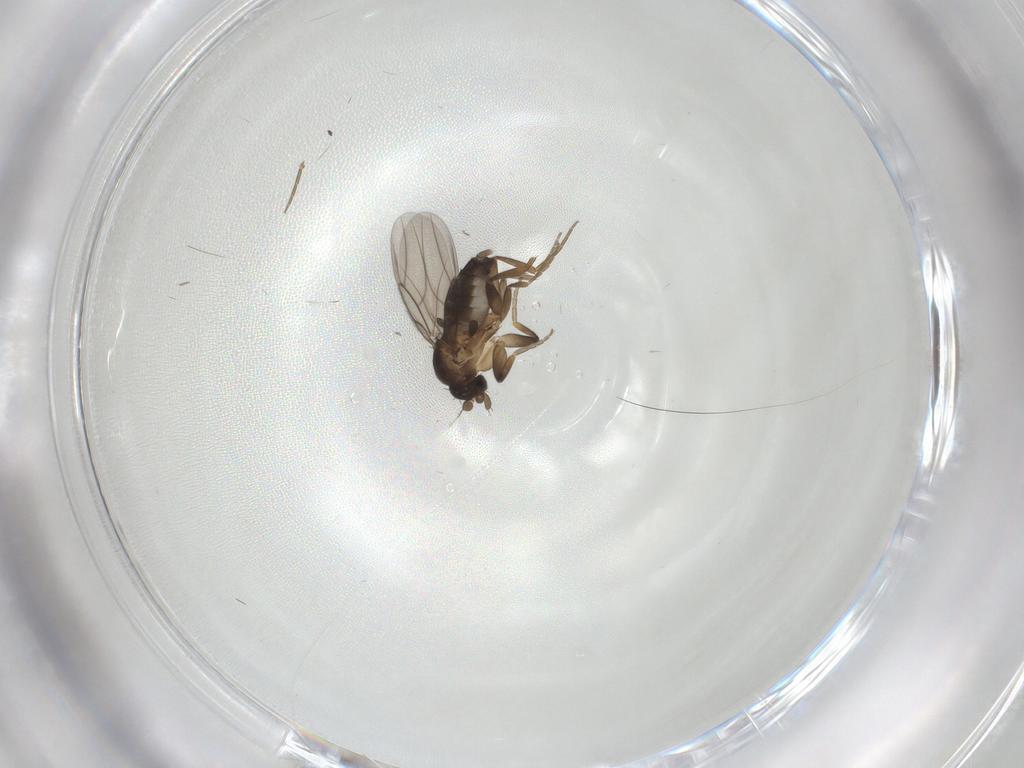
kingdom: Animalia
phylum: Arthropoda
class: Insecta
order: Diptera
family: Phoridae
